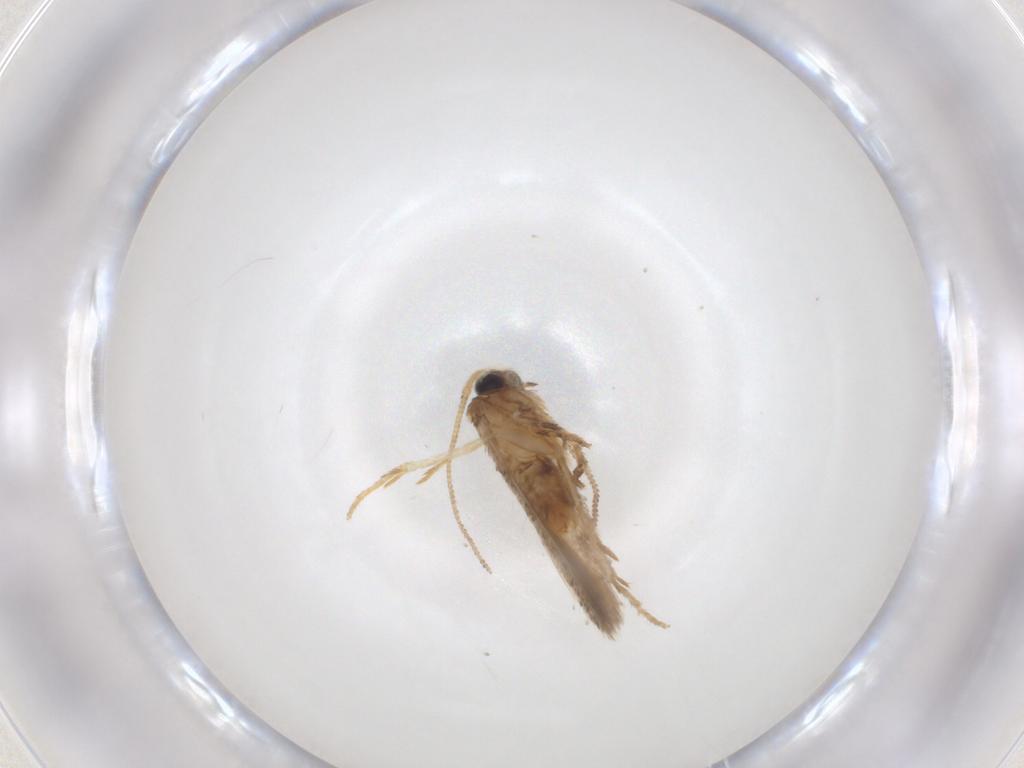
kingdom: Animalia
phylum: Arthropoda
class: Insecta
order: Lepidoptera
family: Nepticulidae
